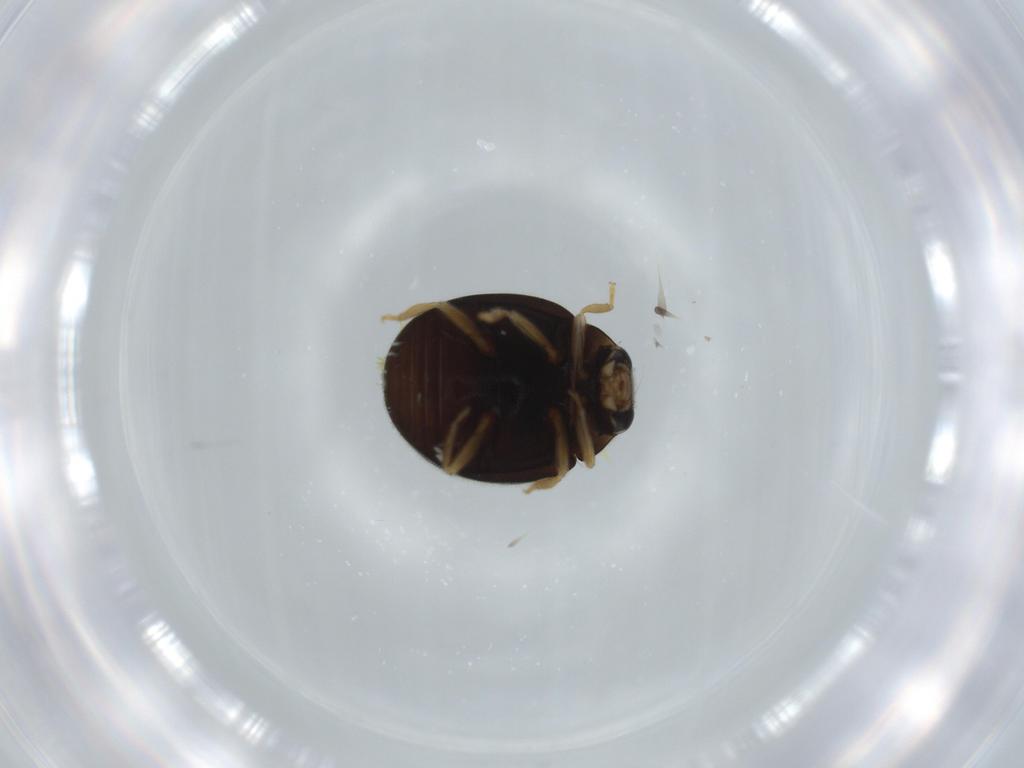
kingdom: Animalia
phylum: Arthropoda
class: Insecta
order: Coleoptera
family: Coccinellidae
